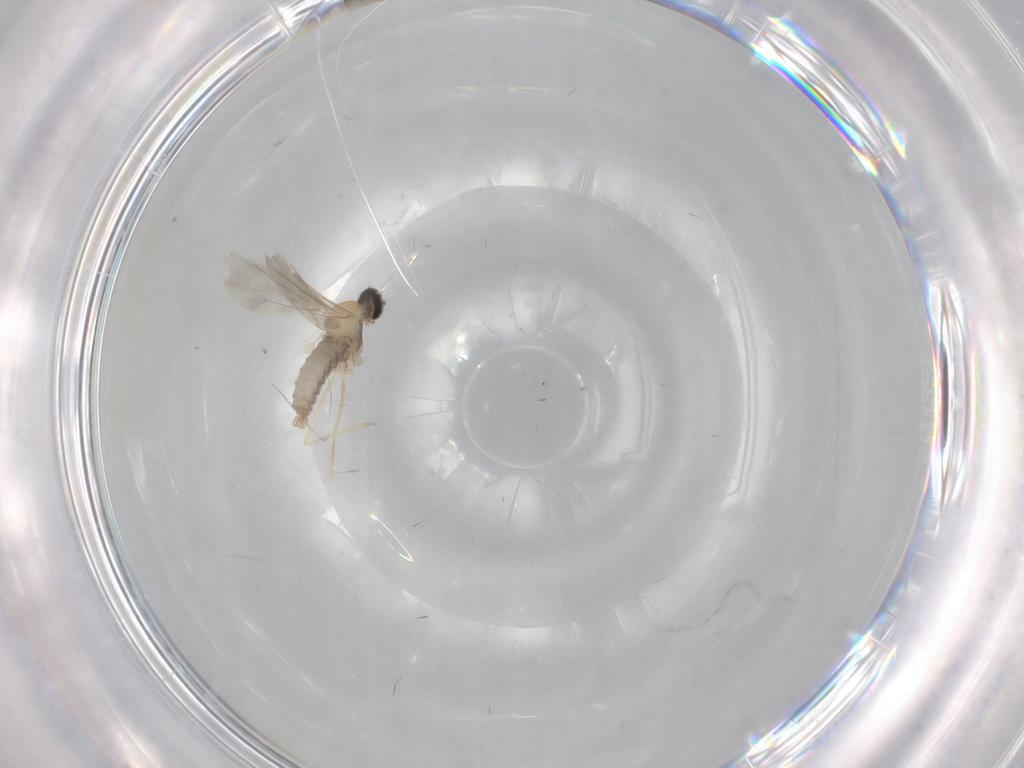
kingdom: Animalia
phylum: Arthropoda
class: Insecta
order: Diptera
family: Ceratopogonidae
